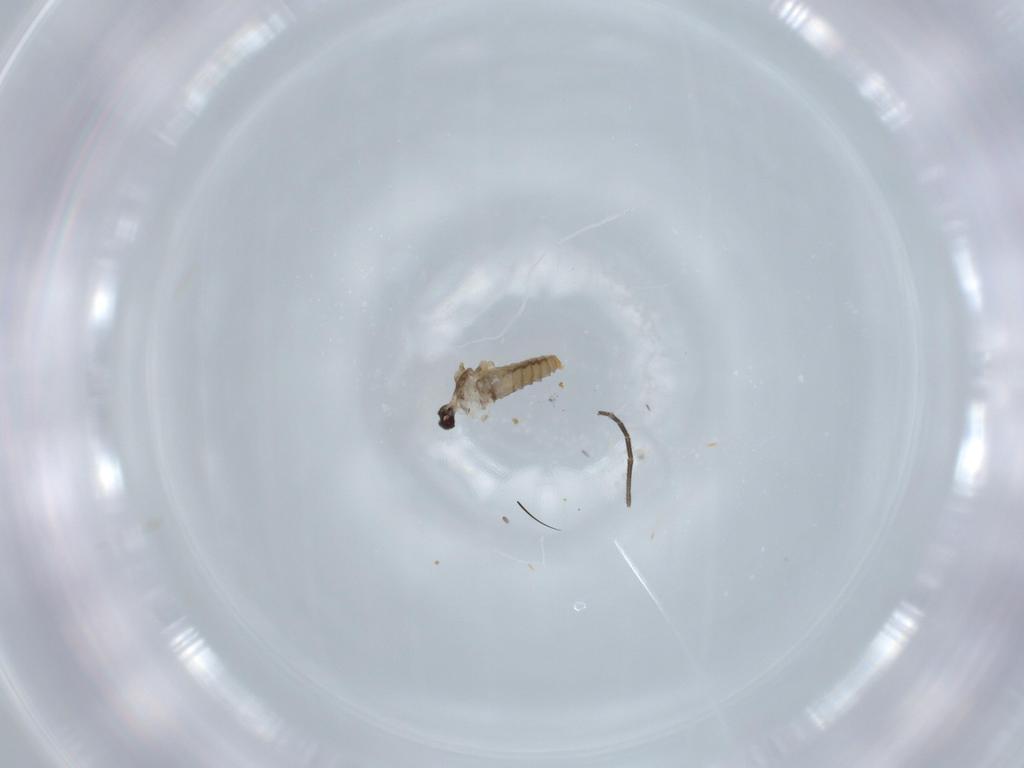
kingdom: Animalia
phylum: Arthropoda
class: Insecta
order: Diptera
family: Cecidomyiidae
